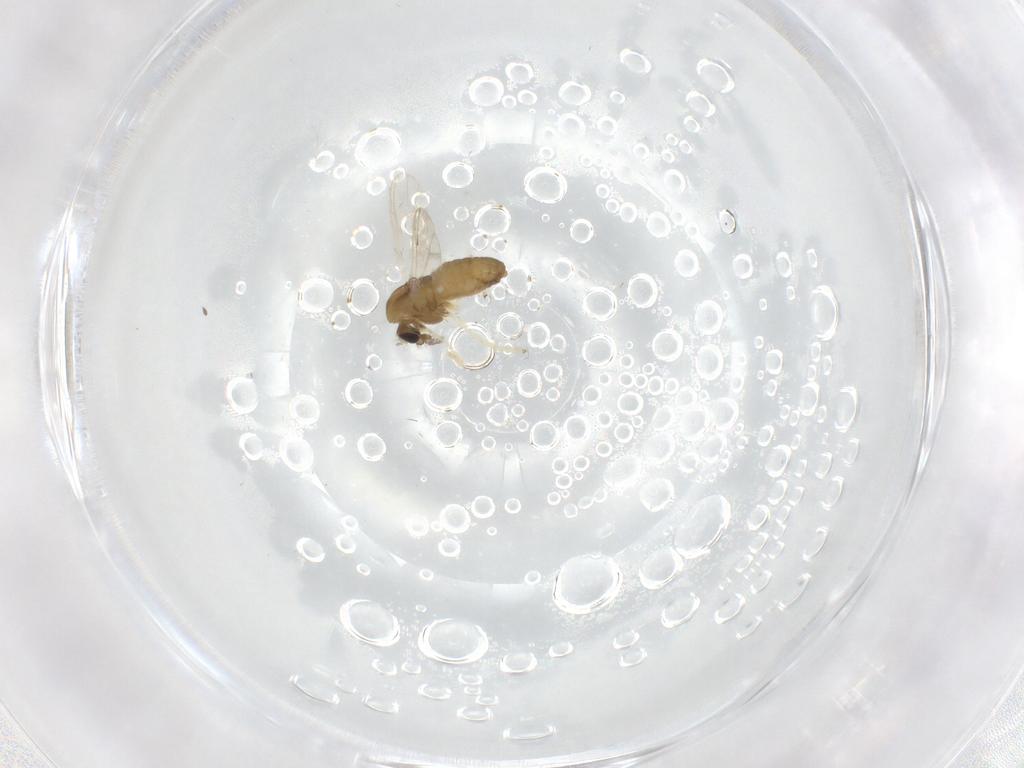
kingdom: Animalia
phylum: Arthropoda
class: Insecta
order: Diptera
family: Chironomidae
